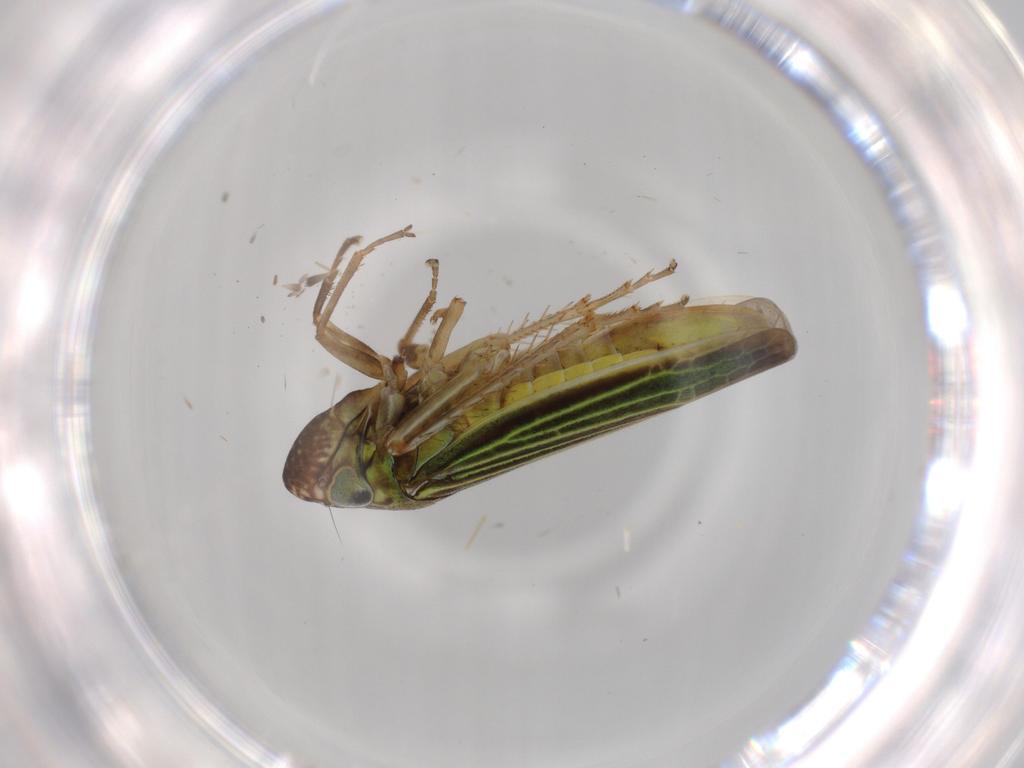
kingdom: Animalia
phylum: Arthropoda
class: Insecta
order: Hemiptera
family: Cicadellidae
